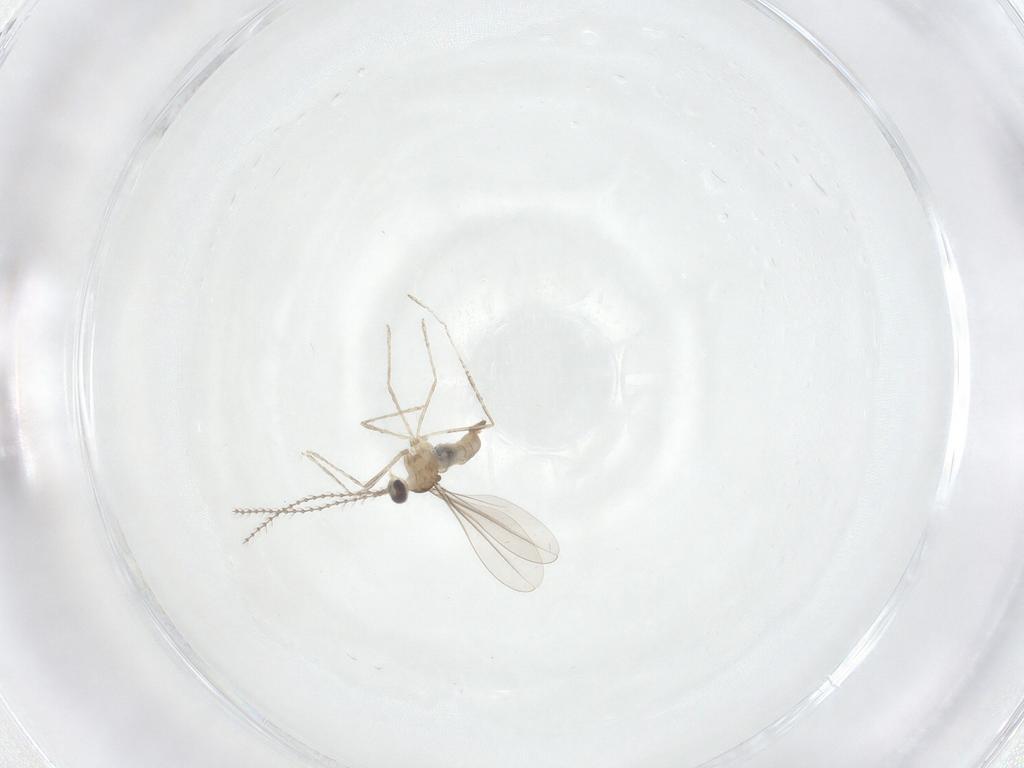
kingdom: Animalia
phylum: Arthropoda
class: Insecta
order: Diptera
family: Cecidomyiidae
